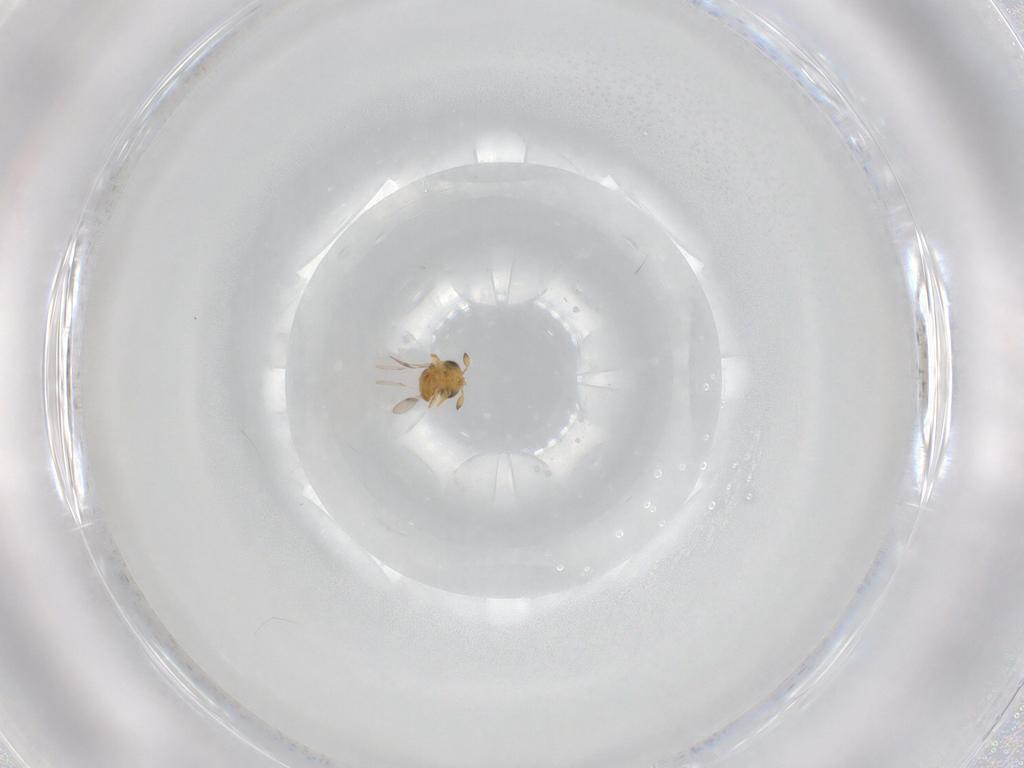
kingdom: Animalia
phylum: Arthropoda
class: Insecta
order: Hymenoptera
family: Scelionidae
